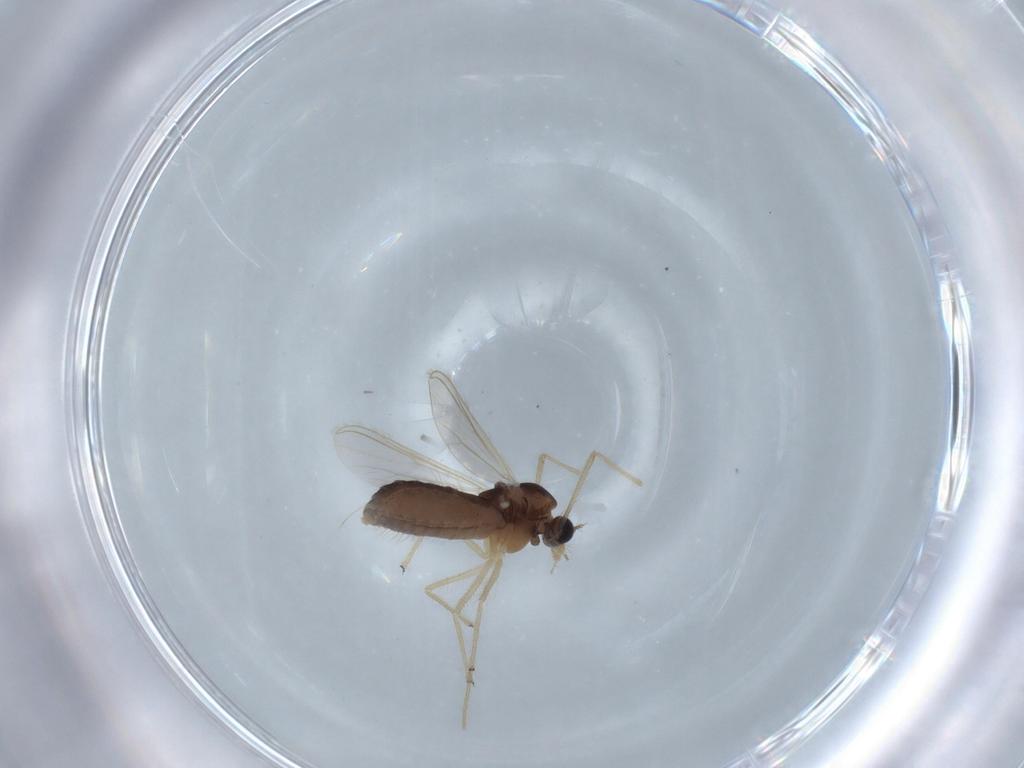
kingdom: Animalia
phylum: Arthropoda
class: Insecta
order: Diptera
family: Chironomidae
